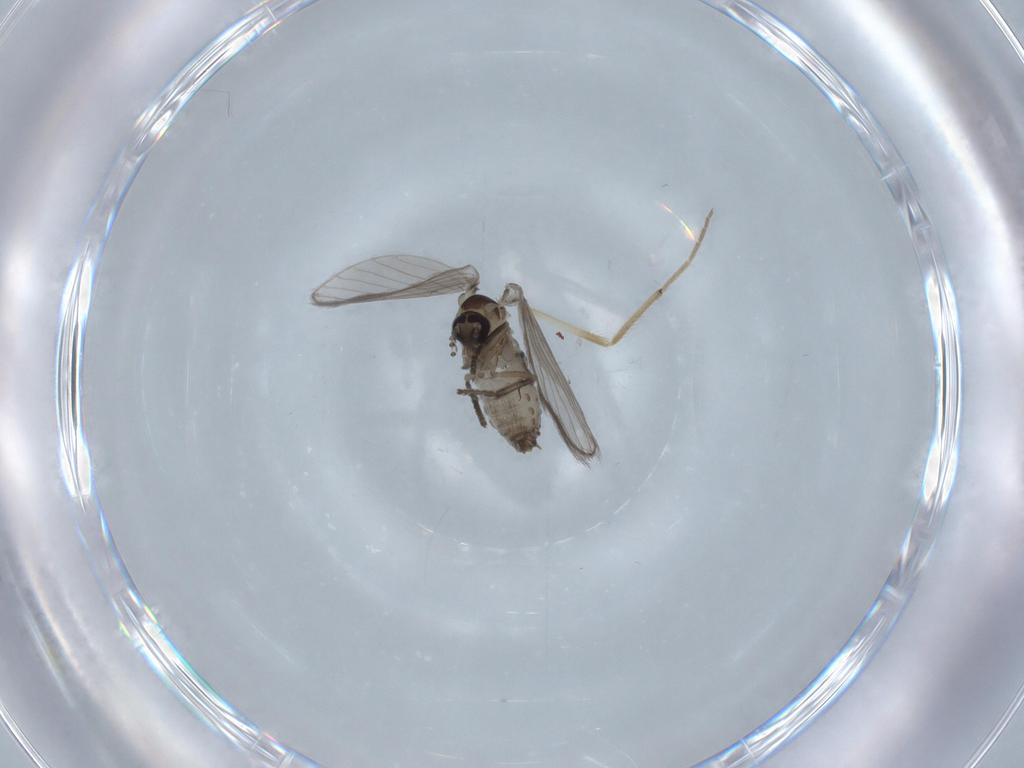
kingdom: Animalia
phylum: Arthropoda
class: Insecta
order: Diptera
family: Psychodidae
